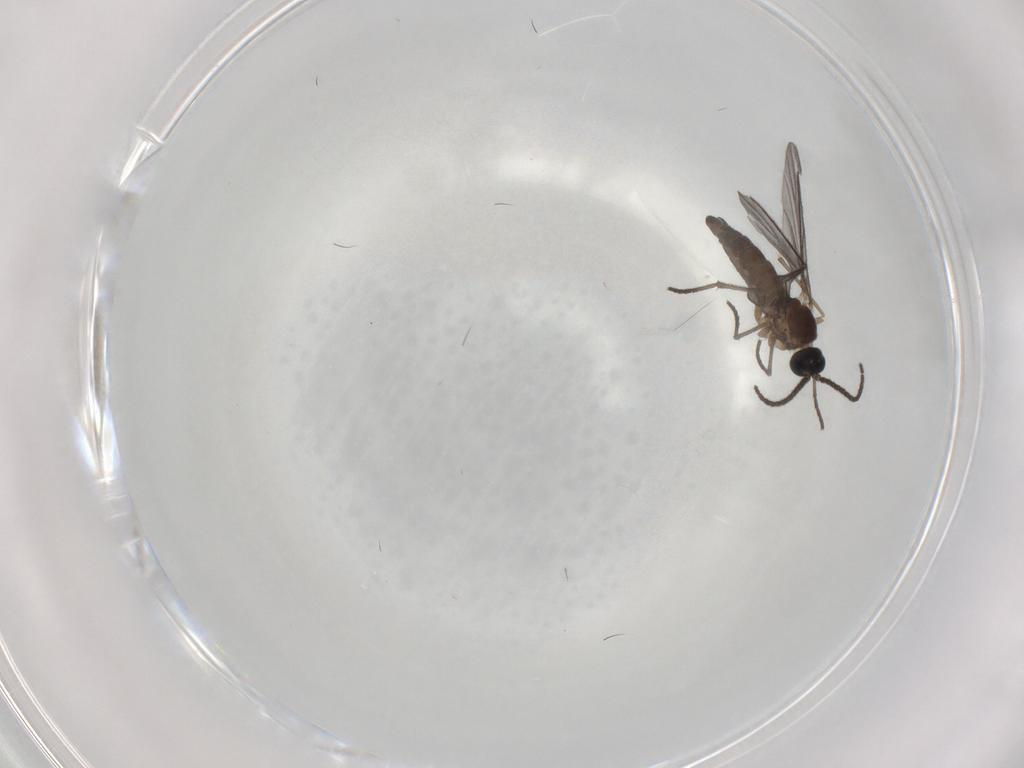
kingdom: Animalia
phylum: Arthropoda
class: Insecta
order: Diptera
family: Sciaridae
